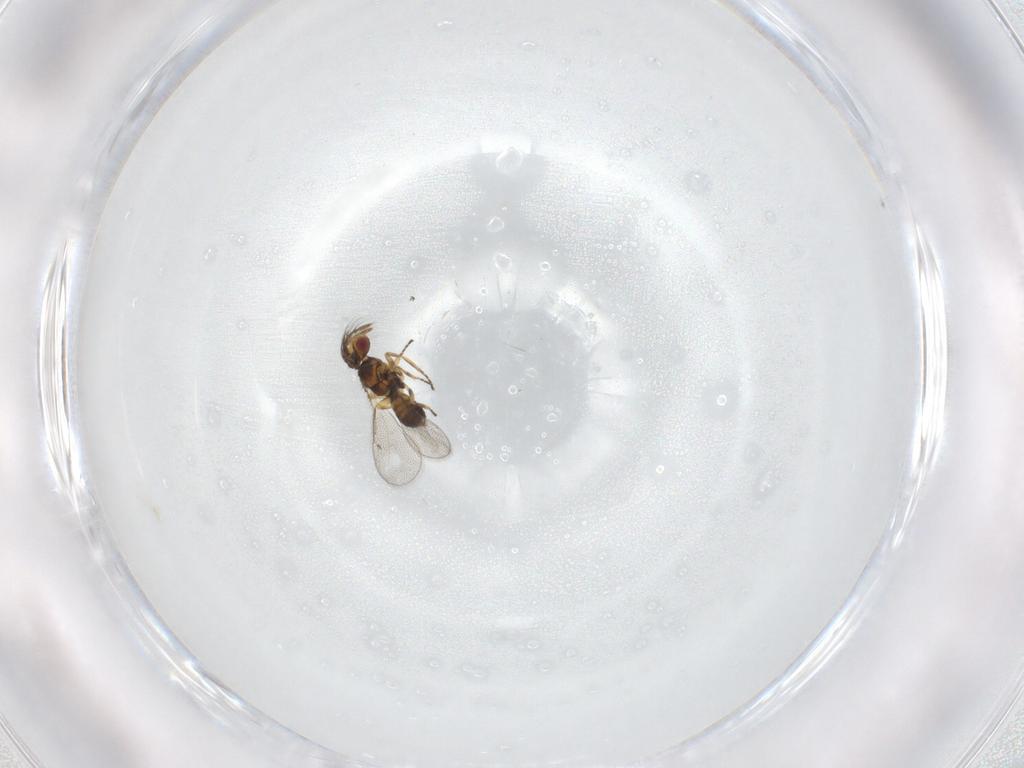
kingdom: Animalia
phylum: Arthropoda
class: Insecta
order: Hymenoptera
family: Eulophidae
